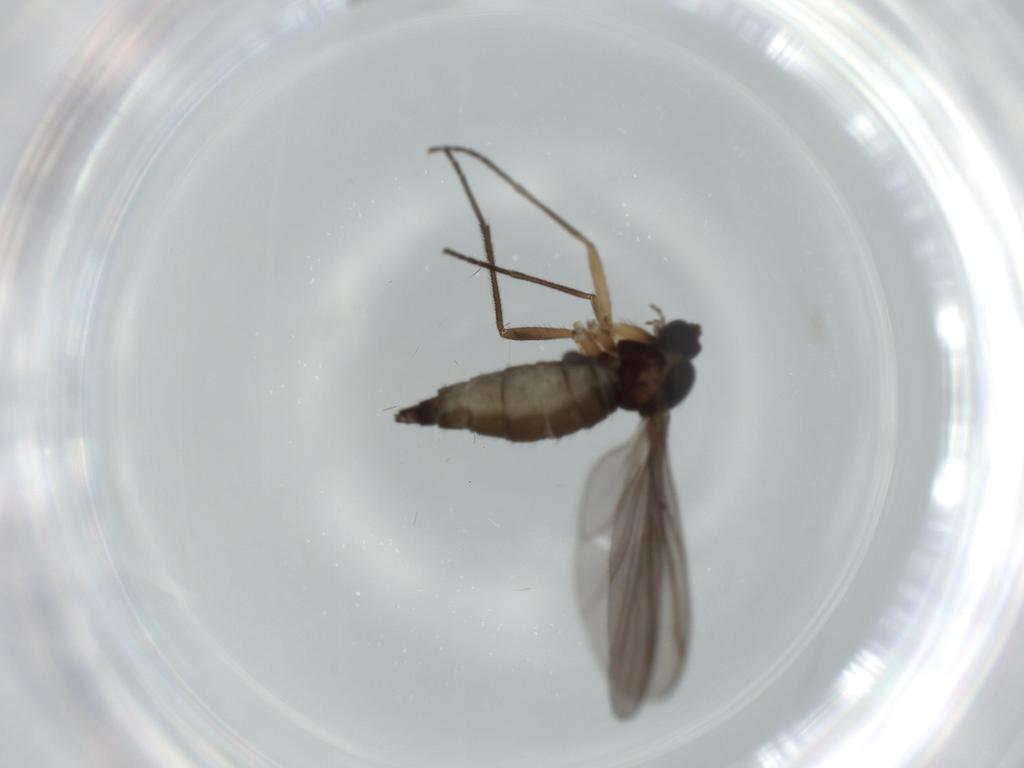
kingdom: Animalia
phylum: Arthropoda
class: Insecta
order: Diptera
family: Sciaridae
